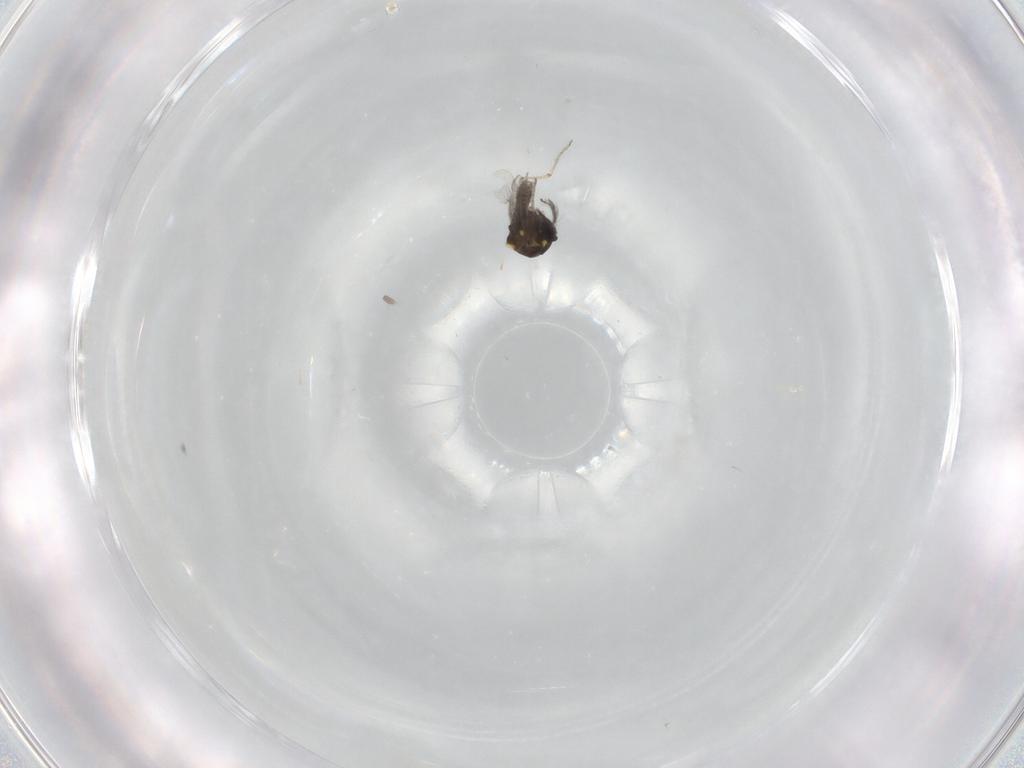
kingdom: Animalia
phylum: Arthropoda
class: Insecta
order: Diptera
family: Ceratopogonidae
